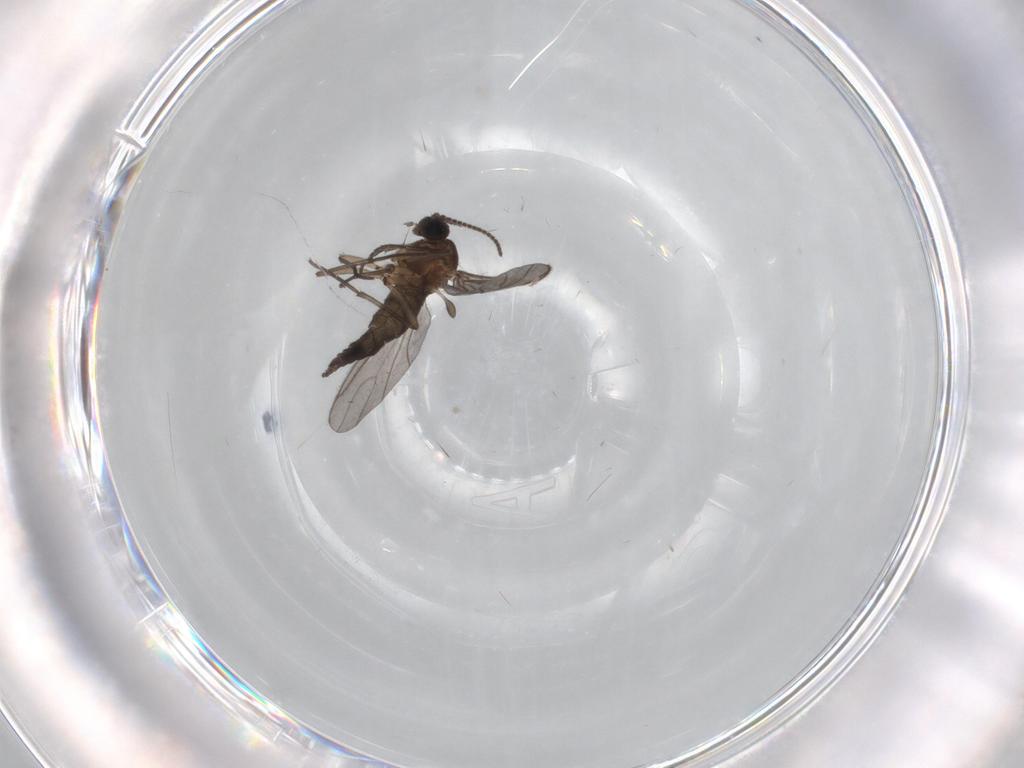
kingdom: Animalia
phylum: Arthropoda
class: Insecta
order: Diptera
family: Sciaridae
